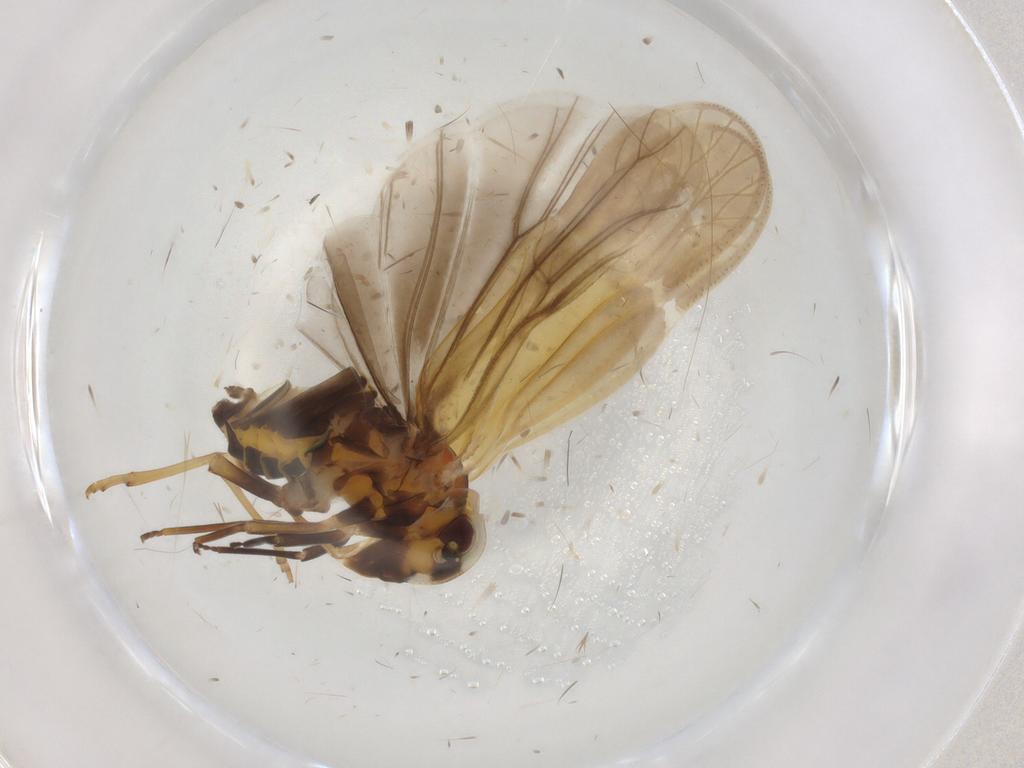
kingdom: Animalia
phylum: Arthropoda
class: Insecta
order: Hemiptera
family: Meenoplidae
